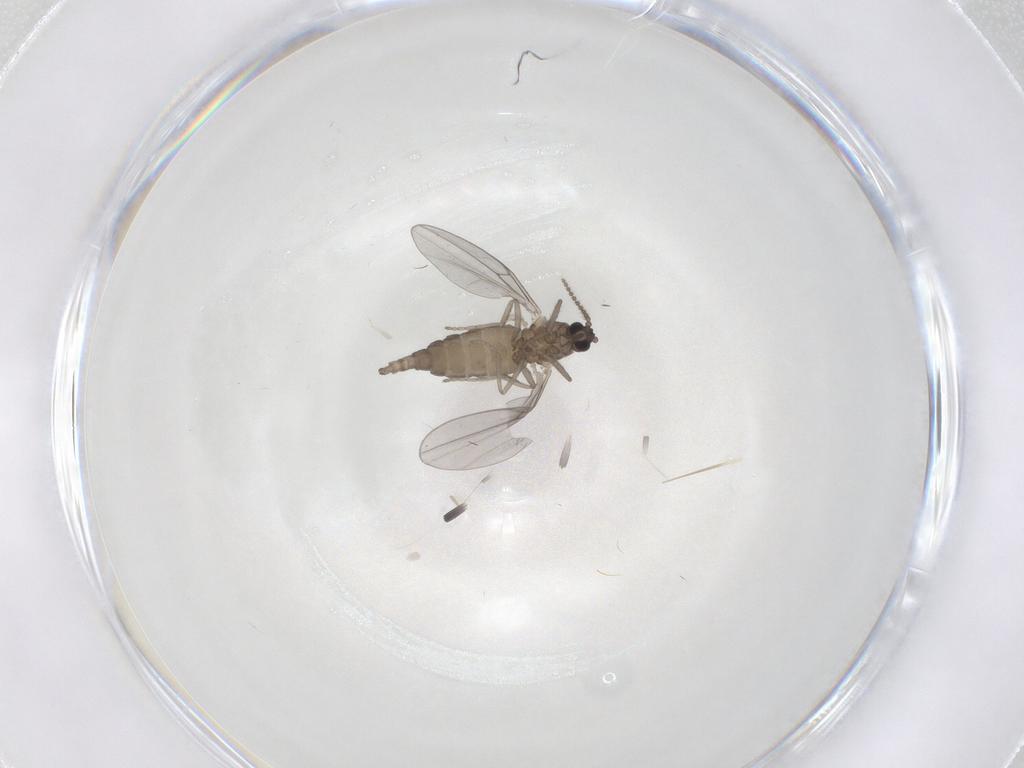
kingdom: Animalia
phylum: Arthropoda
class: Insecta
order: Diptera
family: Cecidomyiidae
